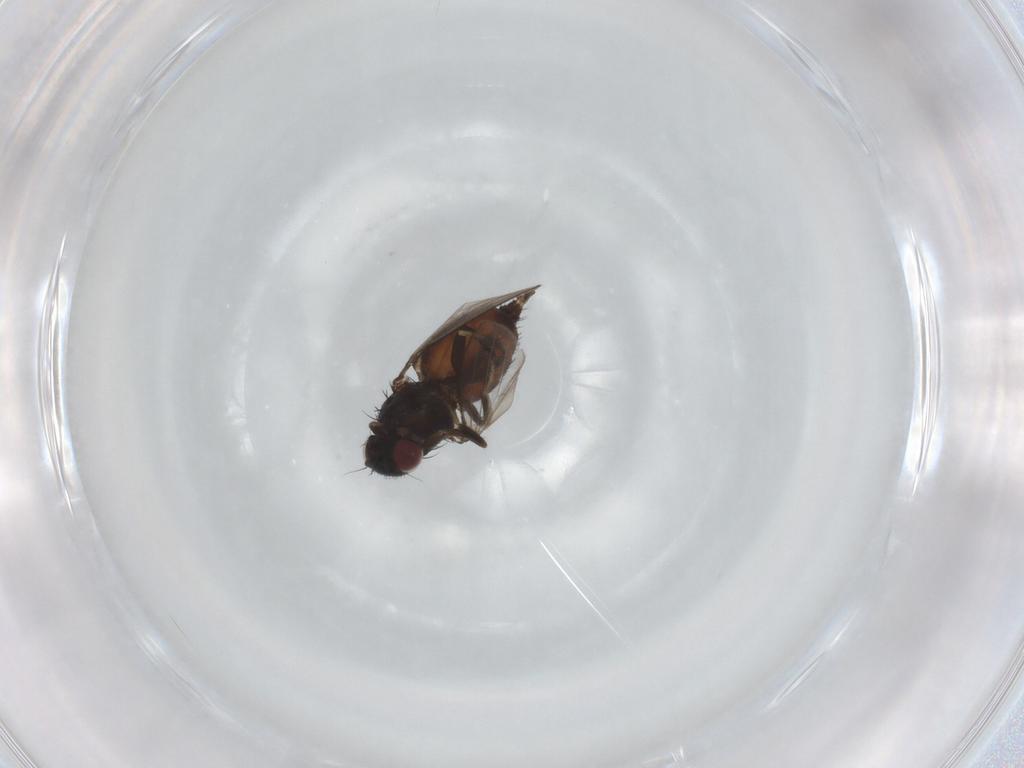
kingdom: Animalia
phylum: Arthropoda
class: Insecta
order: Diptera
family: Milichiidae
